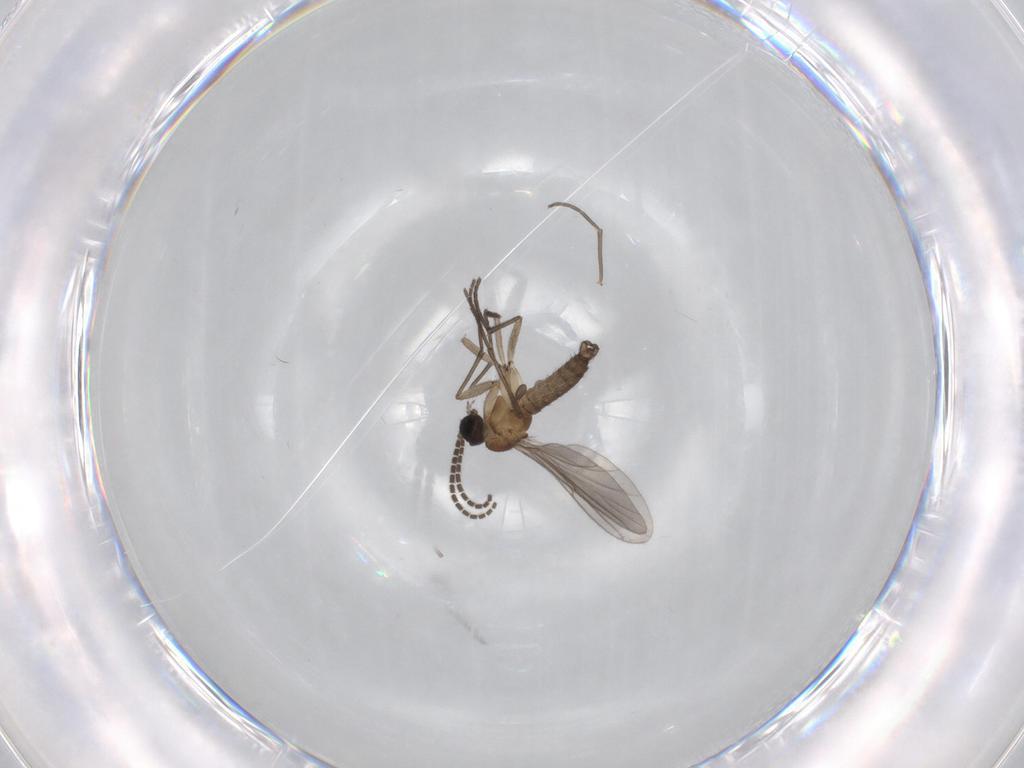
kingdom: Animalia
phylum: Arthropoda
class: Insecta
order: Diptera
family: Sciaridae
